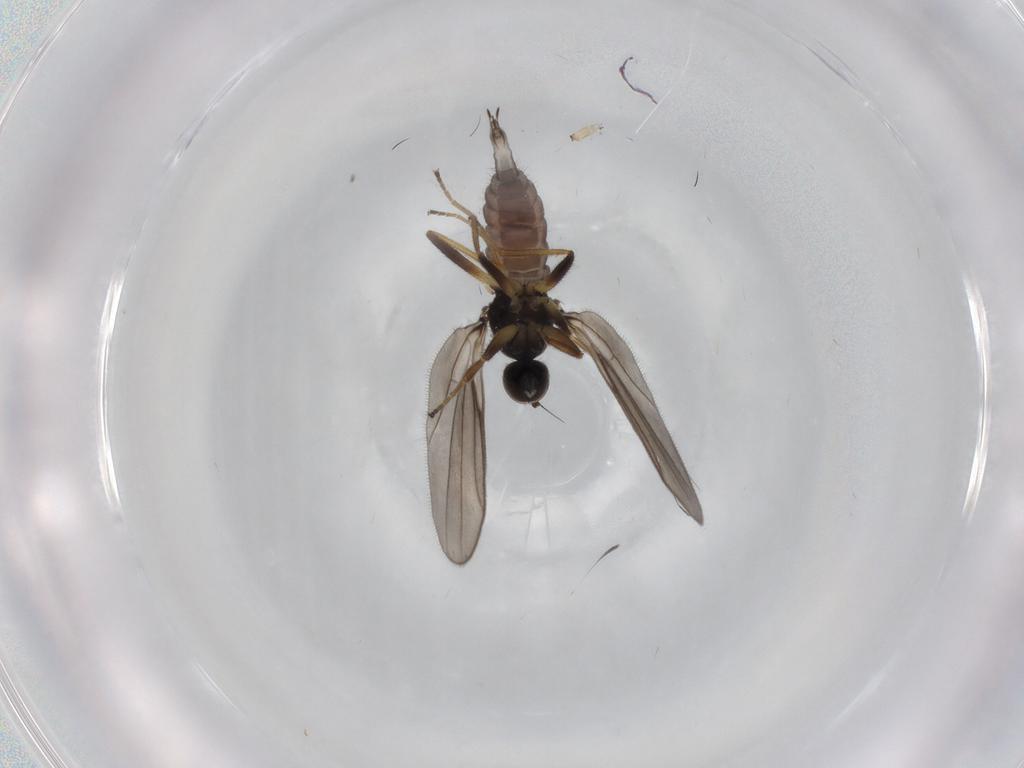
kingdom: Animalia
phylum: Arthropoda
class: Insecta
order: Diptera
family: Hybotidae
